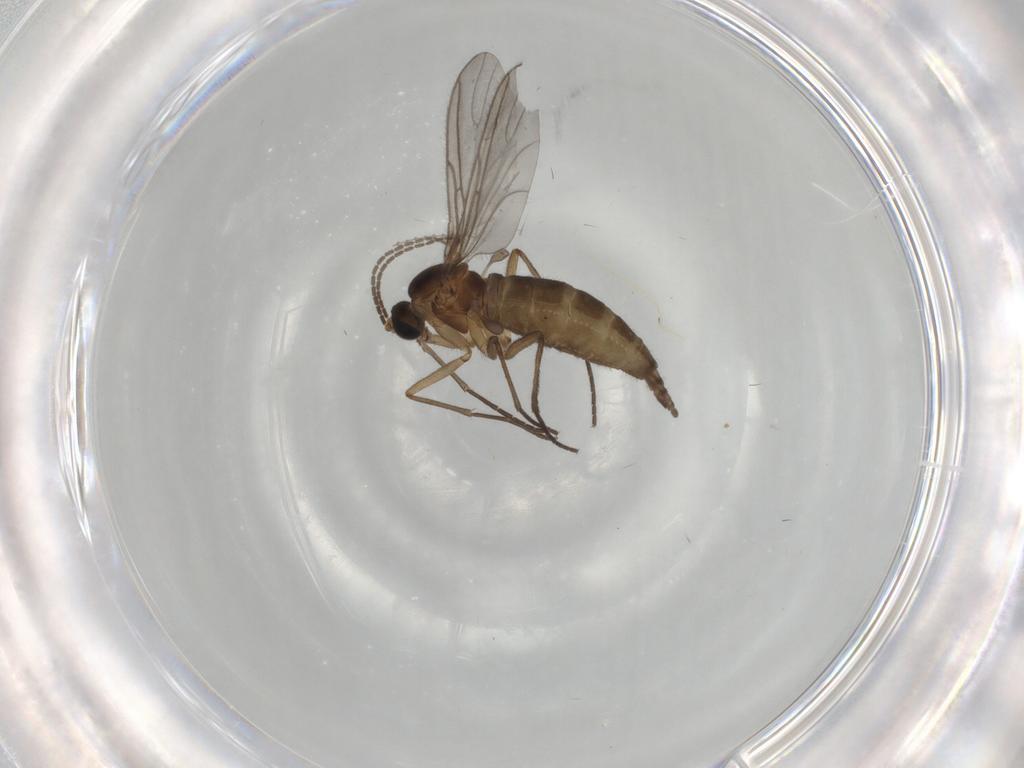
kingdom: Animalia
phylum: Arthropoda
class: Insecta
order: Diptera
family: Sciaridae
